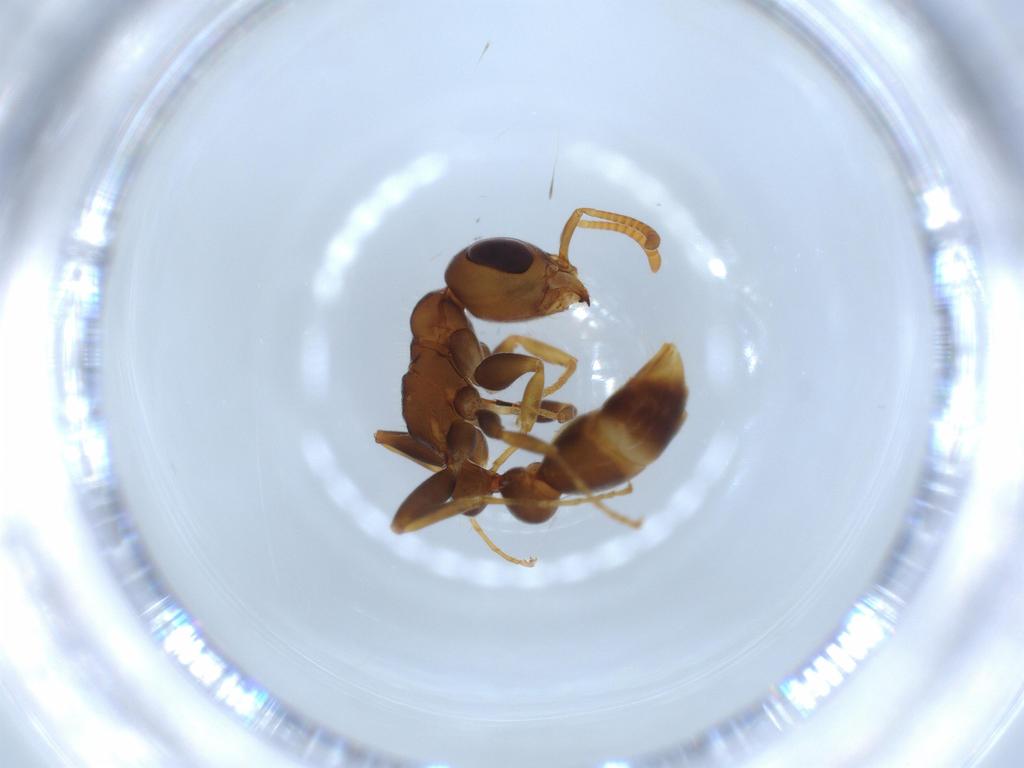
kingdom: Animalia
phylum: Arthropoda
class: Insecta
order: Hymenoptera
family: Formicidae
